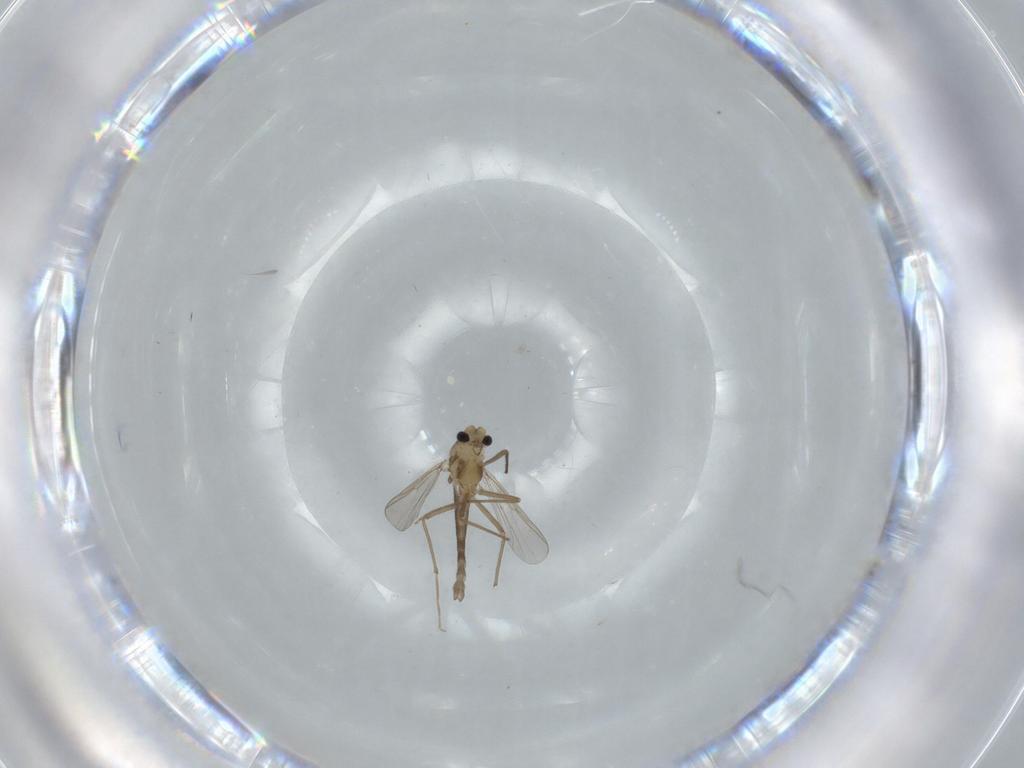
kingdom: Animalia
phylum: Arthropoda
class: Insecta
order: Diptera
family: Chironomidae
